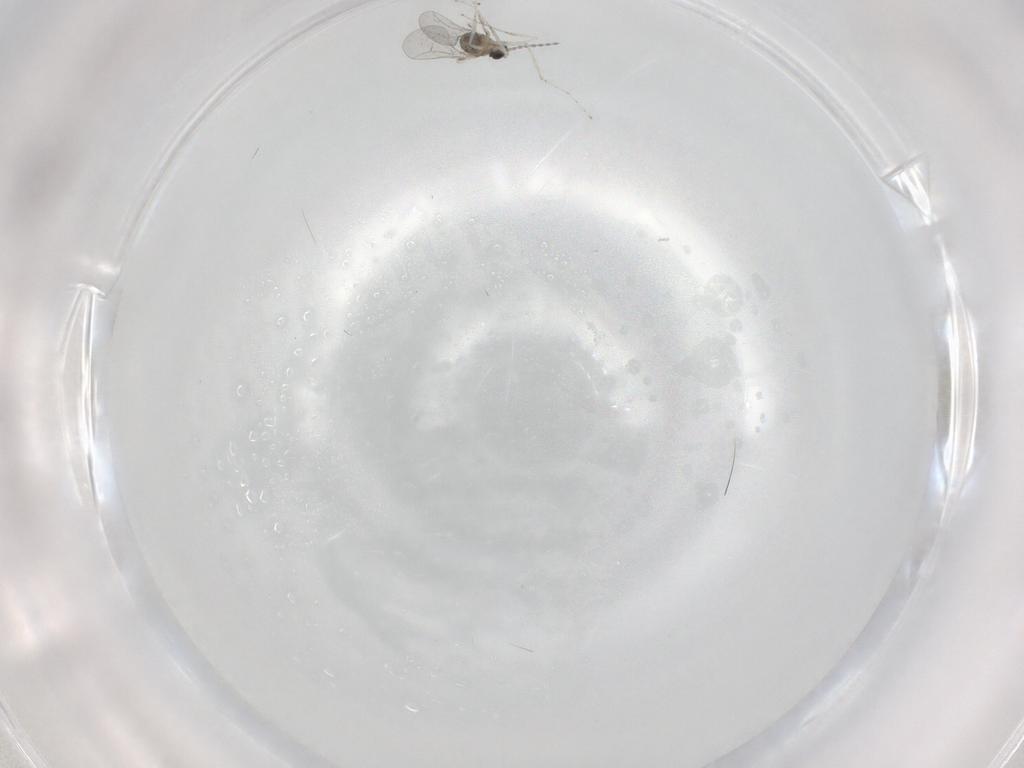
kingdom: Animalia
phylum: Arthropoda
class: Insecta
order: Diptera
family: Cecidomyiidae
